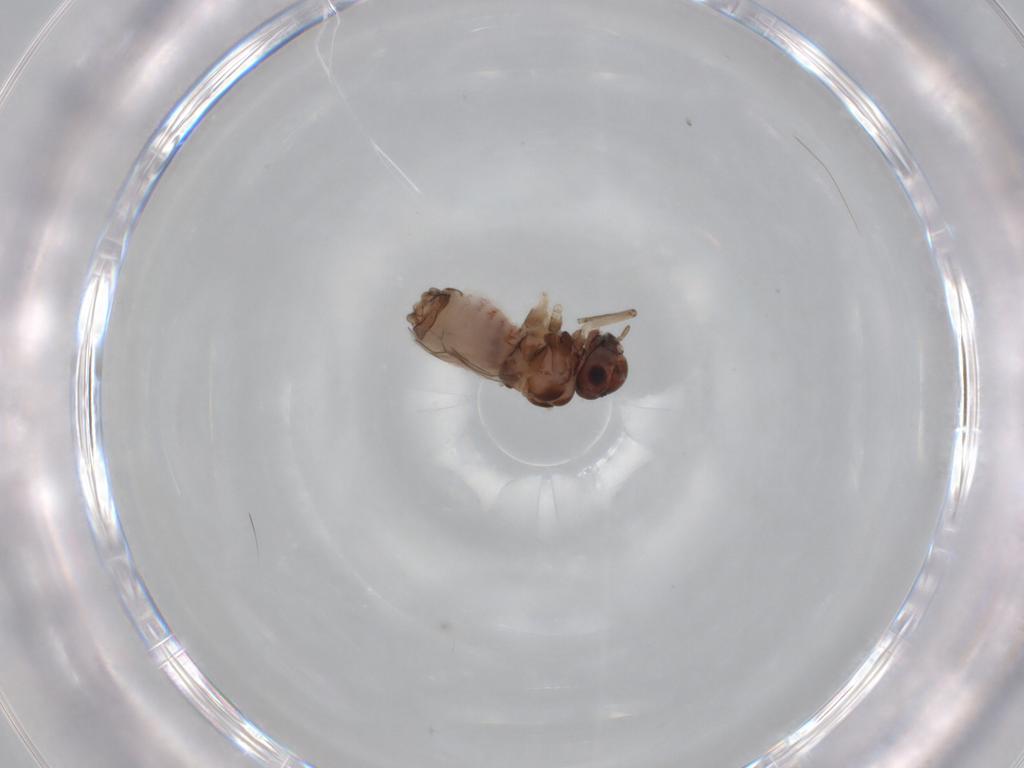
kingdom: Animalia
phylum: Arthropoda
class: Insecta
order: Psocodea
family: Peripsocidae
